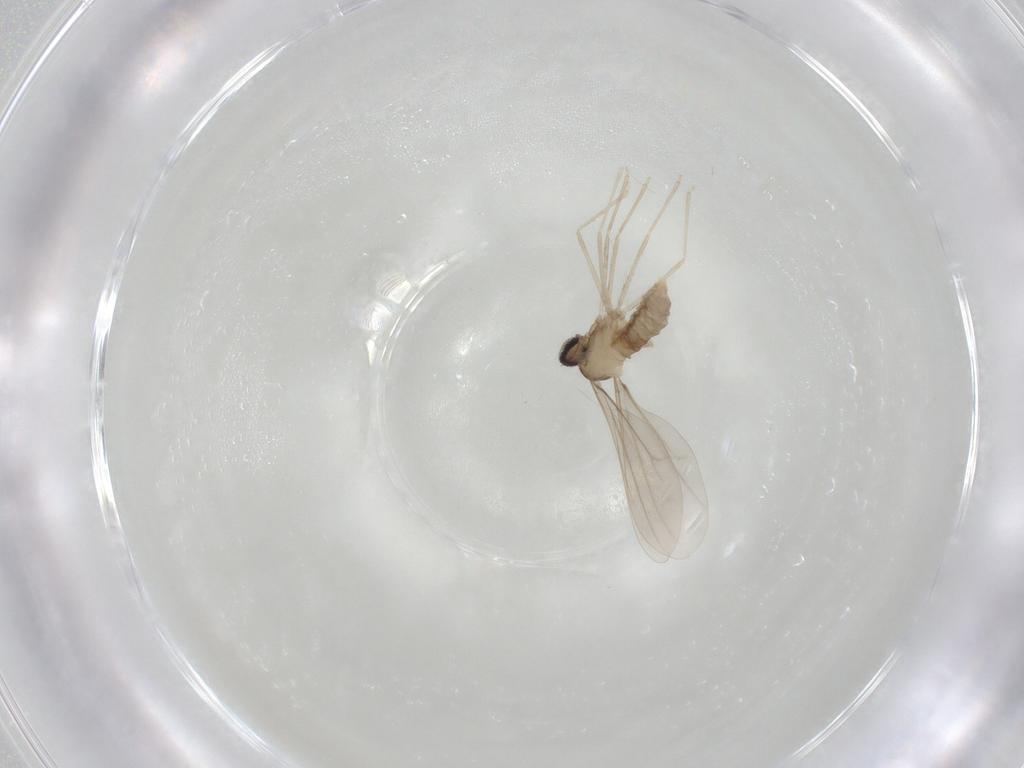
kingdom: Animalia
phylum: Arthropoda
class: Insecta
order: Diptera
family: Cecidomyiidae
